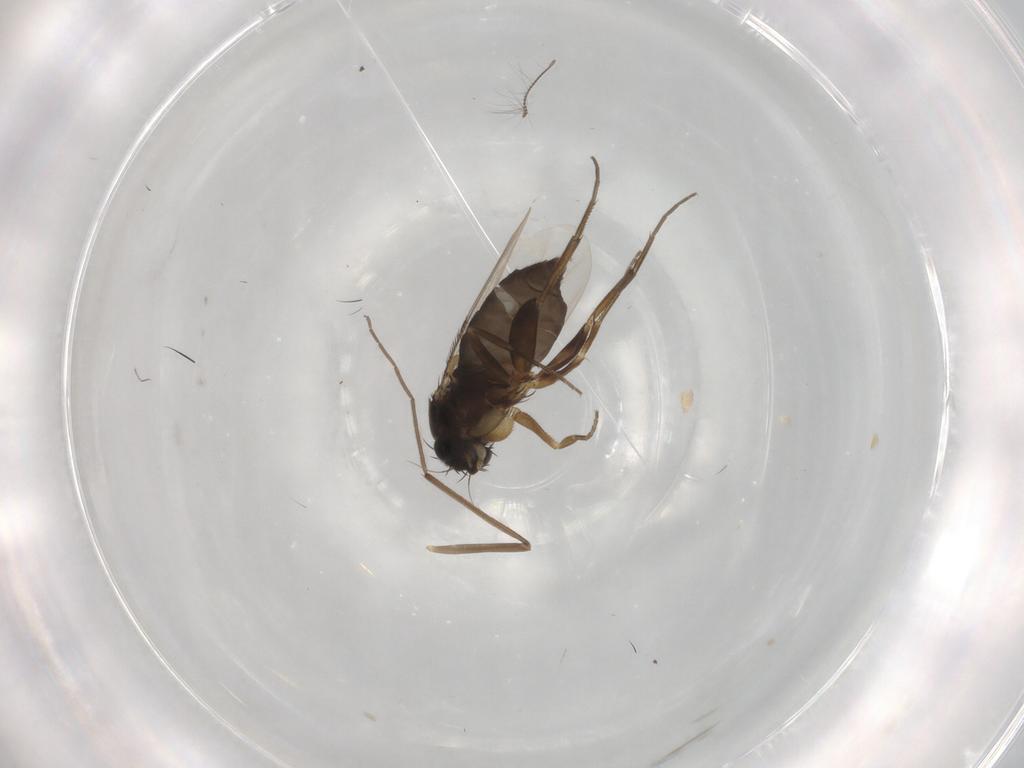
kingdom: Animalia
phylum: Arthropoda
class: Insecta
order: Diptera
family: Phoridae
